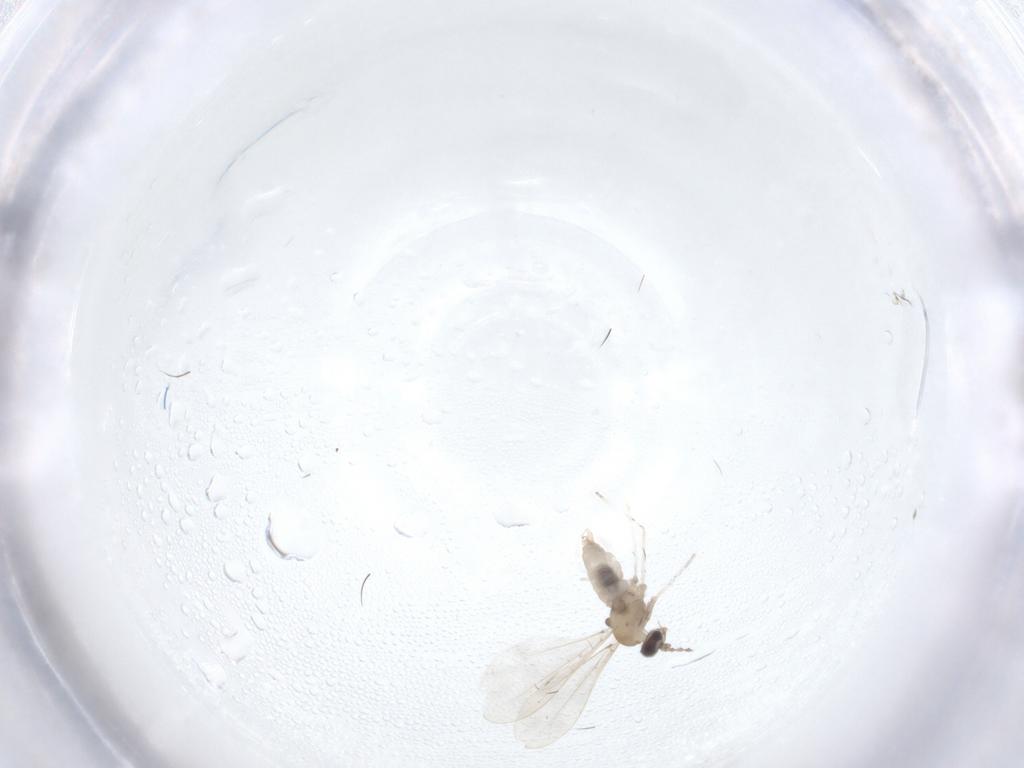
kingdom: Animalia
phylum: Arthropoda
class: Insecta
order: Diptera
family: Cecidomyiidae
